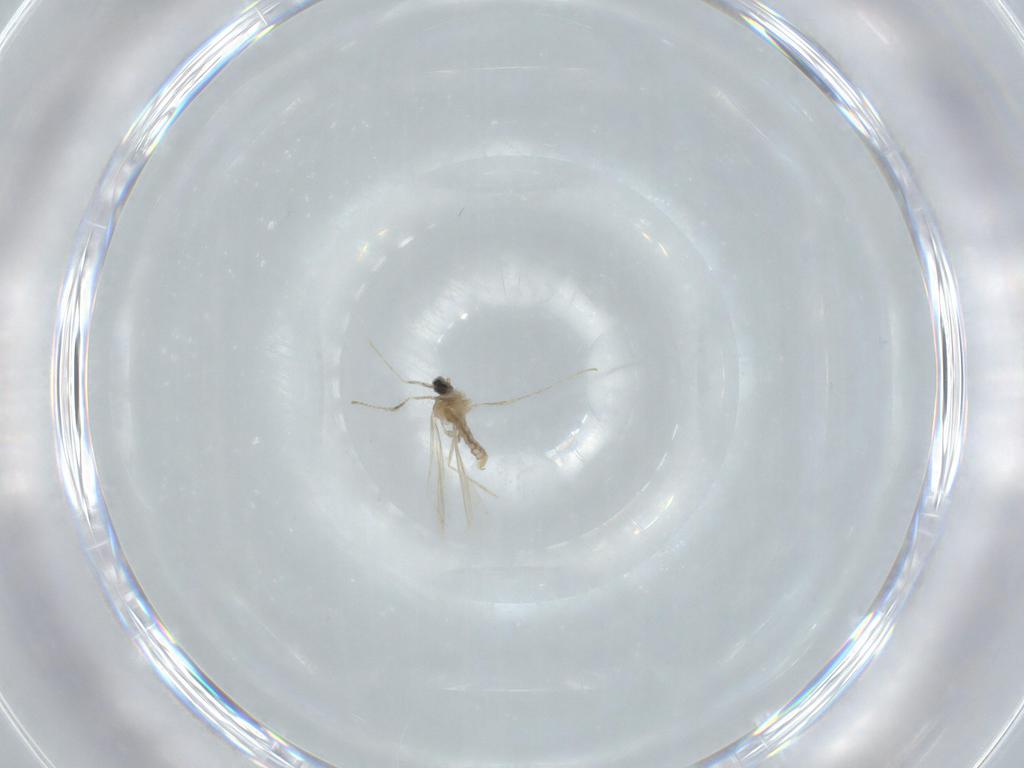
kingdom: Animalia
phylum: Arthropoda
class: Insecta
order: Diptera
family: Cecidomyiidae
